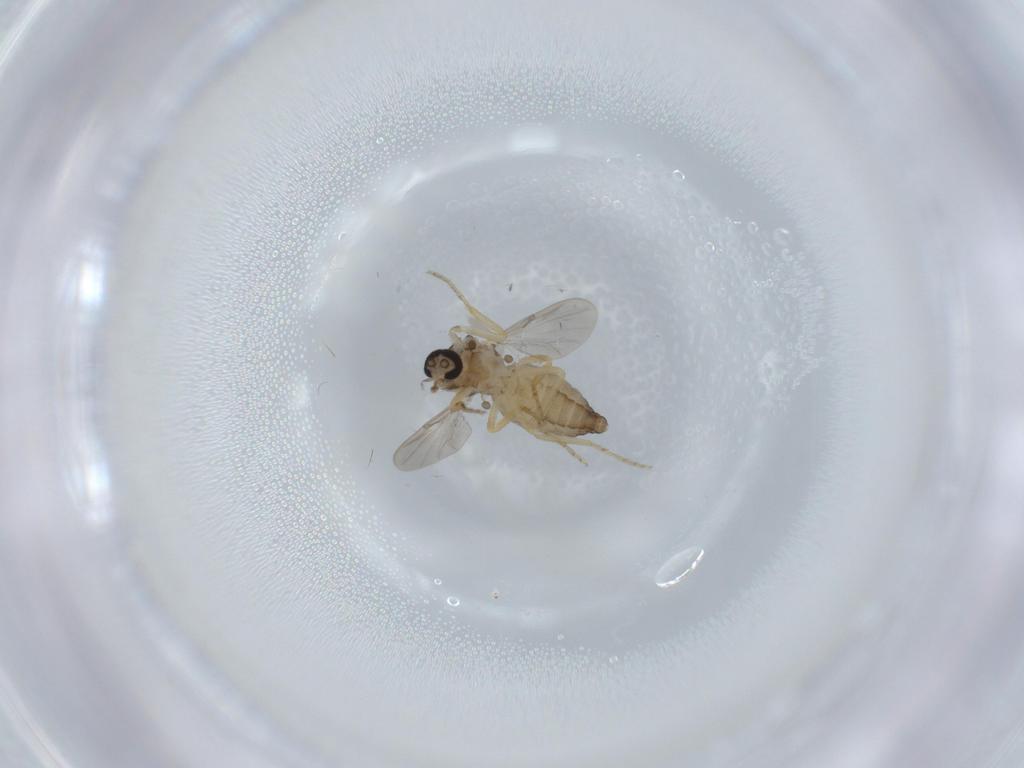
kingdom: Animalia
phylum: Arthropoda
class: Insecta
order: Diptera
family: Ceratopogonidae
